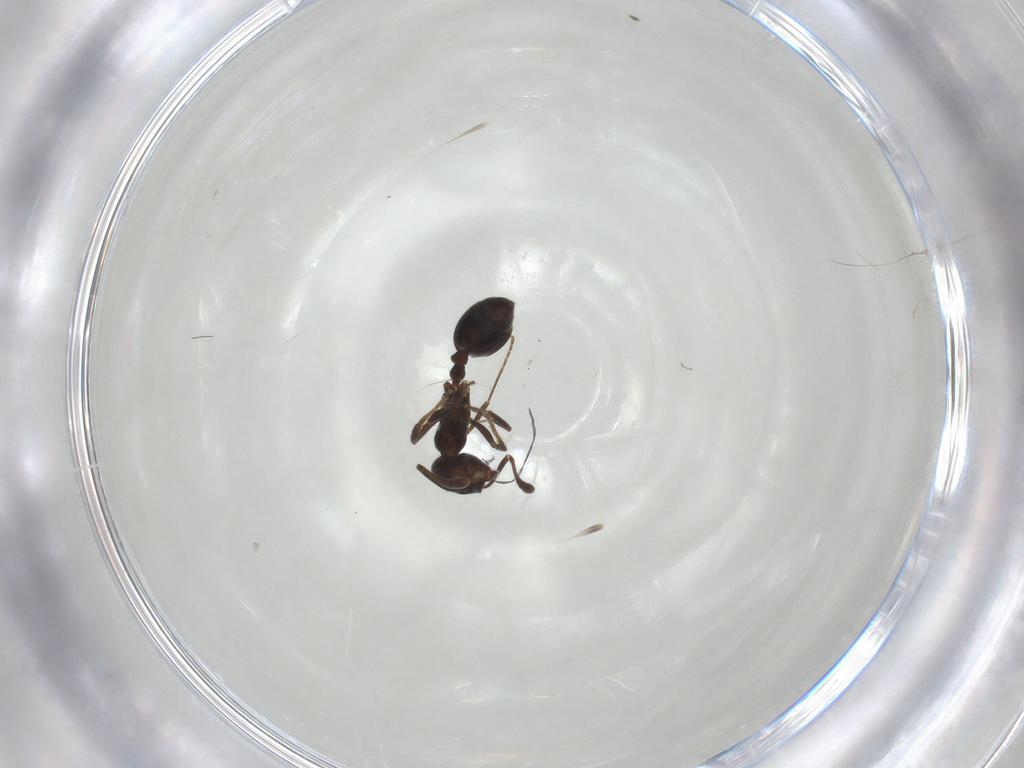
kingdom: Animalia
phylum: Arthropoda
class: Insecta
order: Hymenoptera
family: Formicidae
